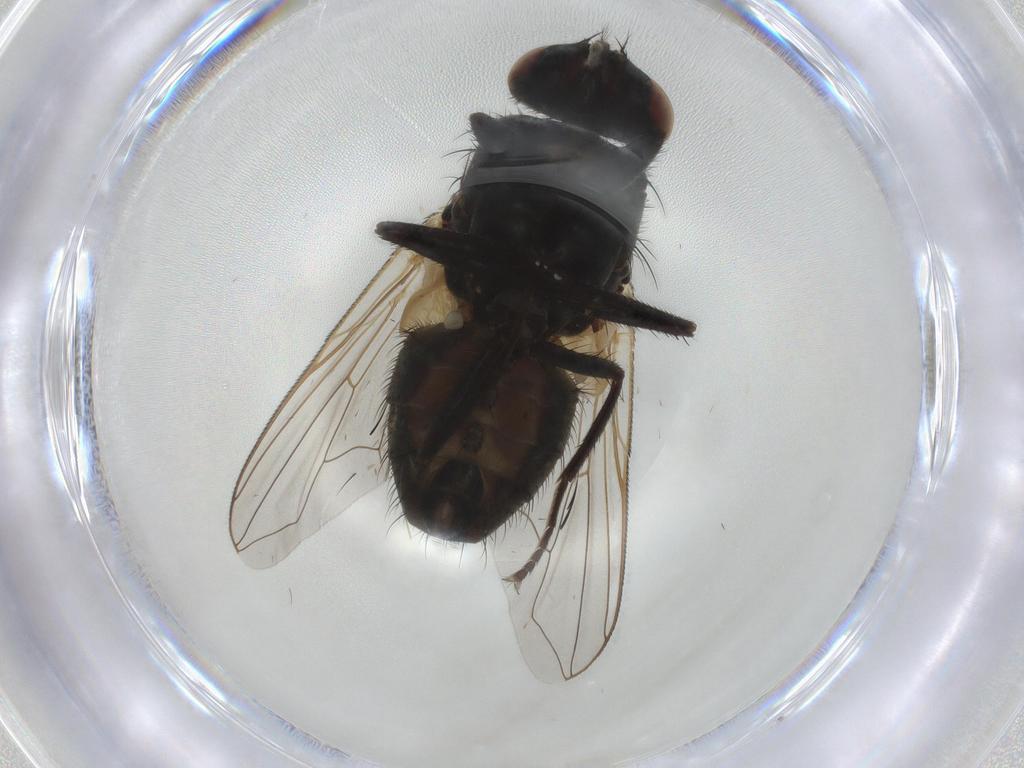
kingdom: Animalia
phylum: Arthropoda
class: Insecta
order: Diptera
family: Muscidae
